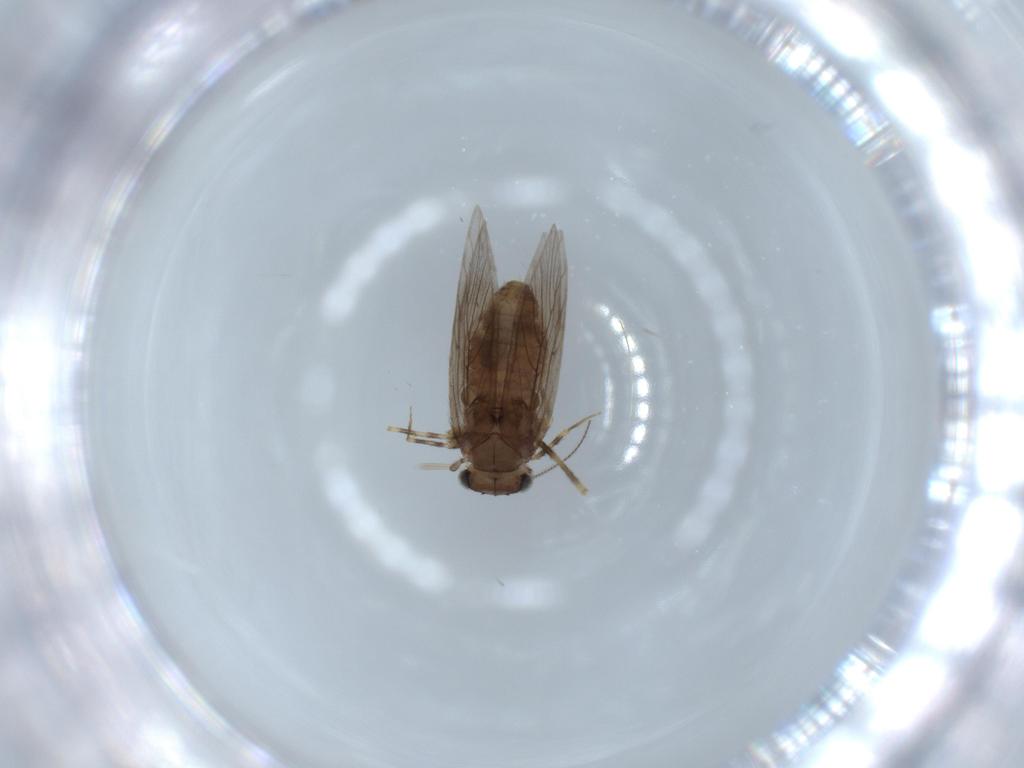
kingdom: Animalia
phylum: Arthropoda
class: Insecta
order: Psocodea
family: Lepidopsocidae
